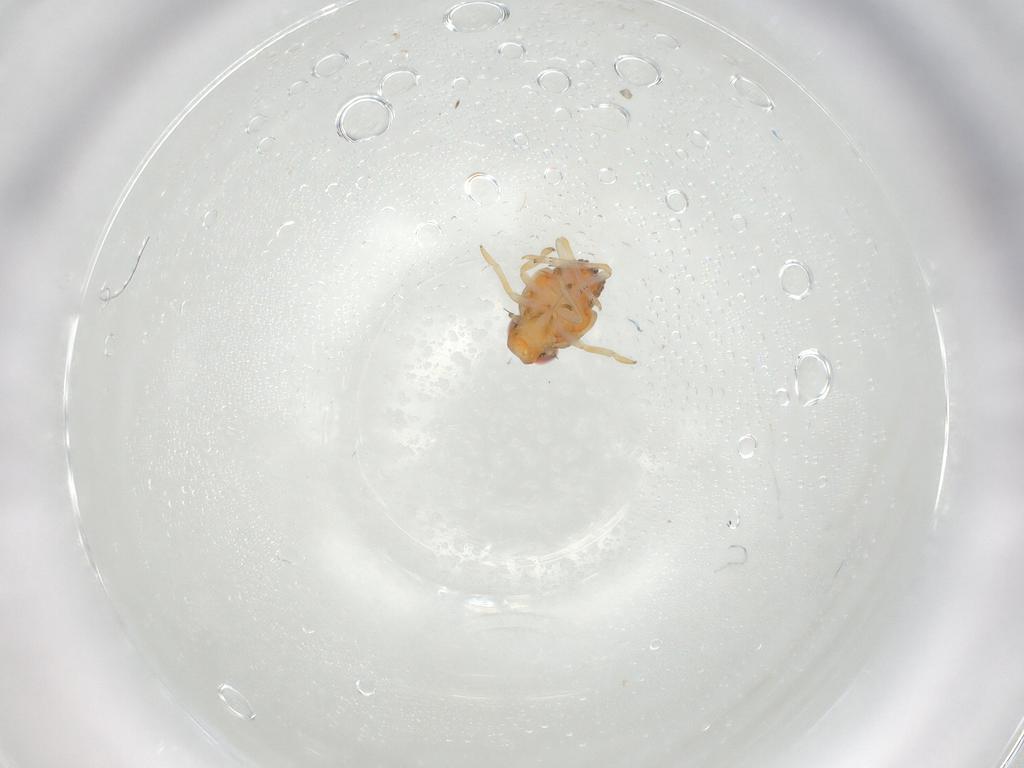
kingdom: Animalia
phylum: Arthropoda
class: Insecta
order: Hemiptera
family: Issidae
